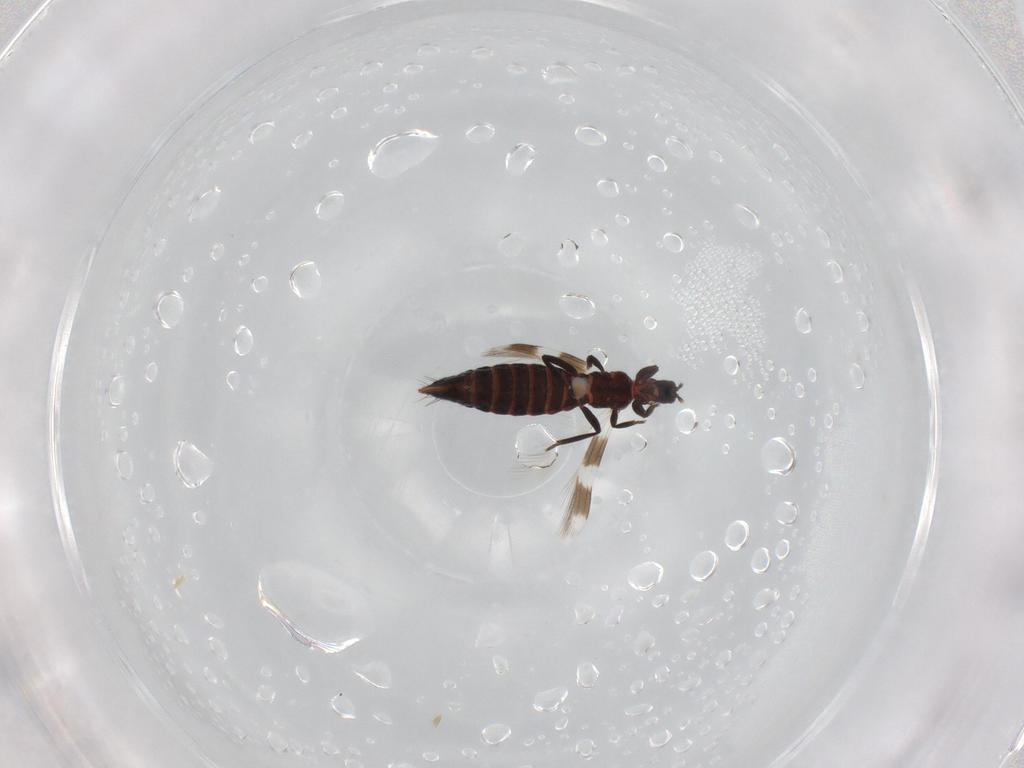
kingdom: Animalia
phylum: Arthropoda
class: Insecta
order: Thysanoptera
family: Aeolothripidae
